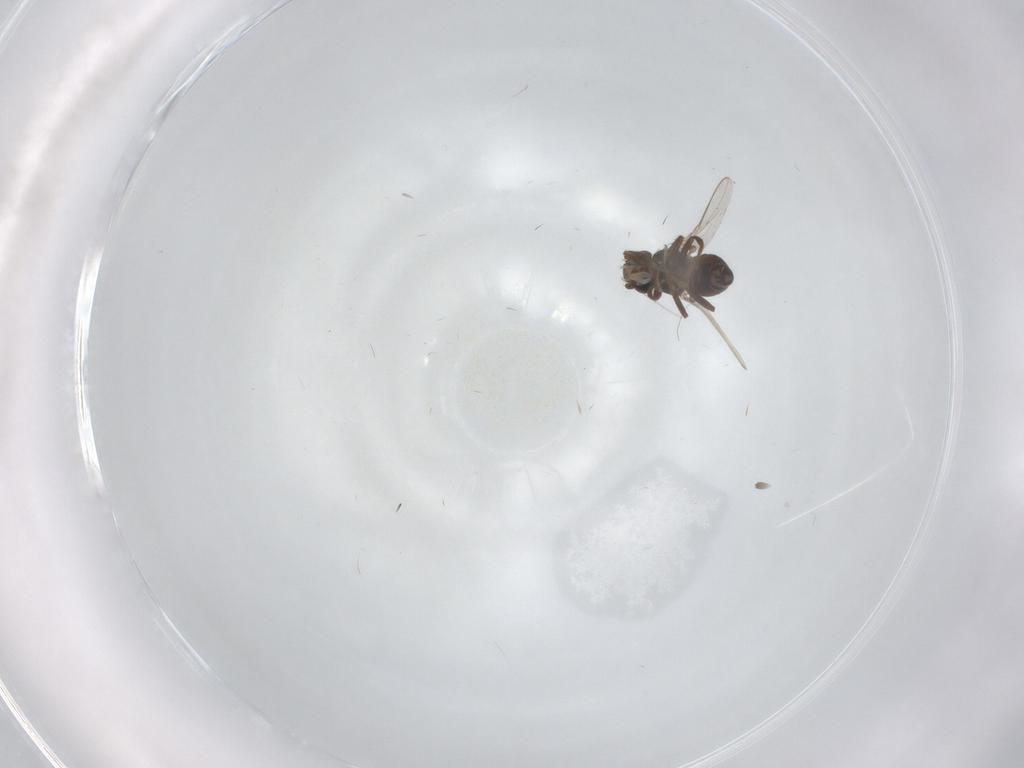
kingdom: Animalia
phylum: Arthropoda
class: Insecta
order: Diptera
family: Sphaeroceridae
